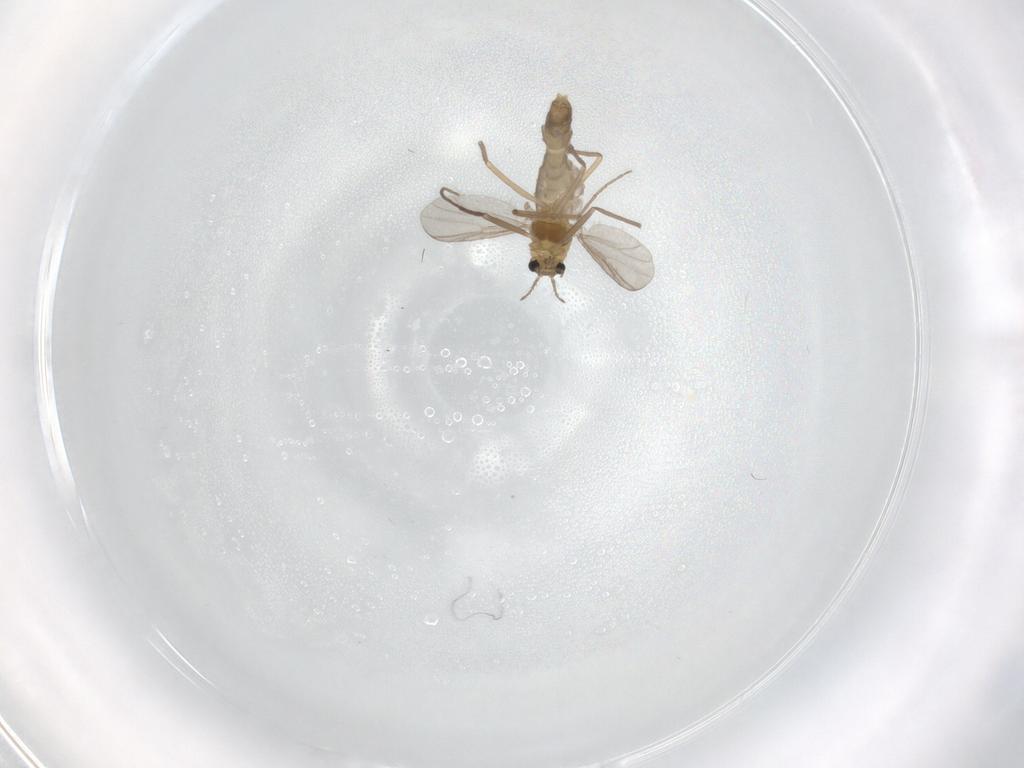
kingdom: Animalia
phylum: Arthropoda
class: Insecta
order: Diptera
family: Chironomidae
